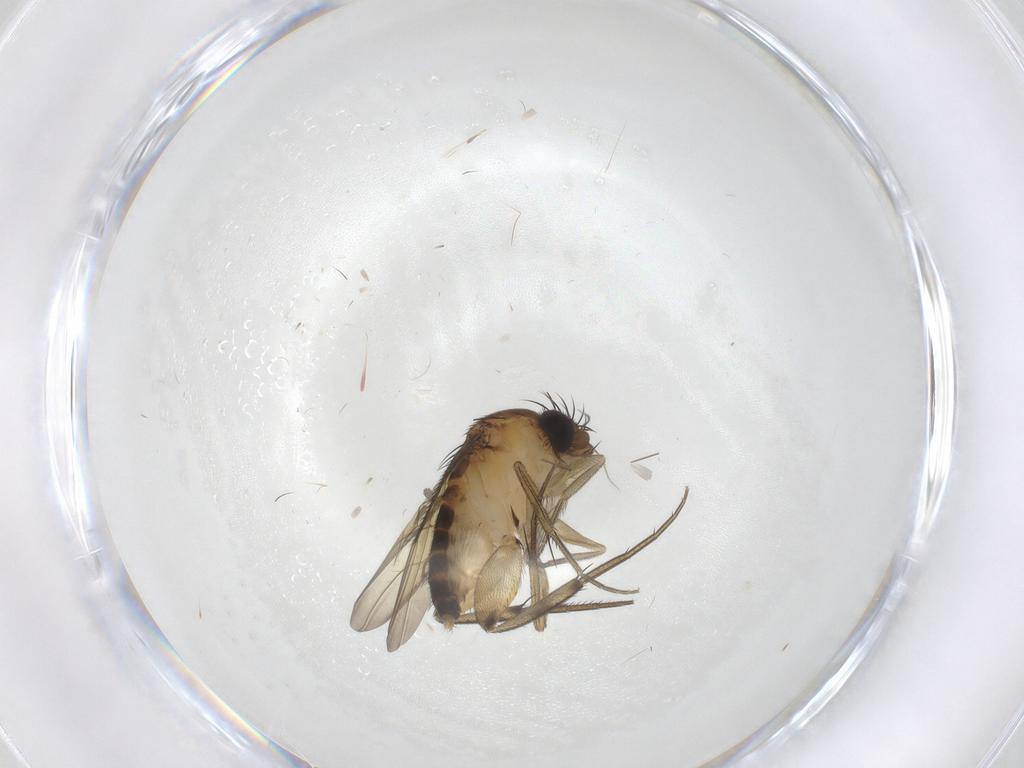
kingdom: Animalia
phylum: Arthropoda
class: Insecta
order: Diptera
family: Phoridae
